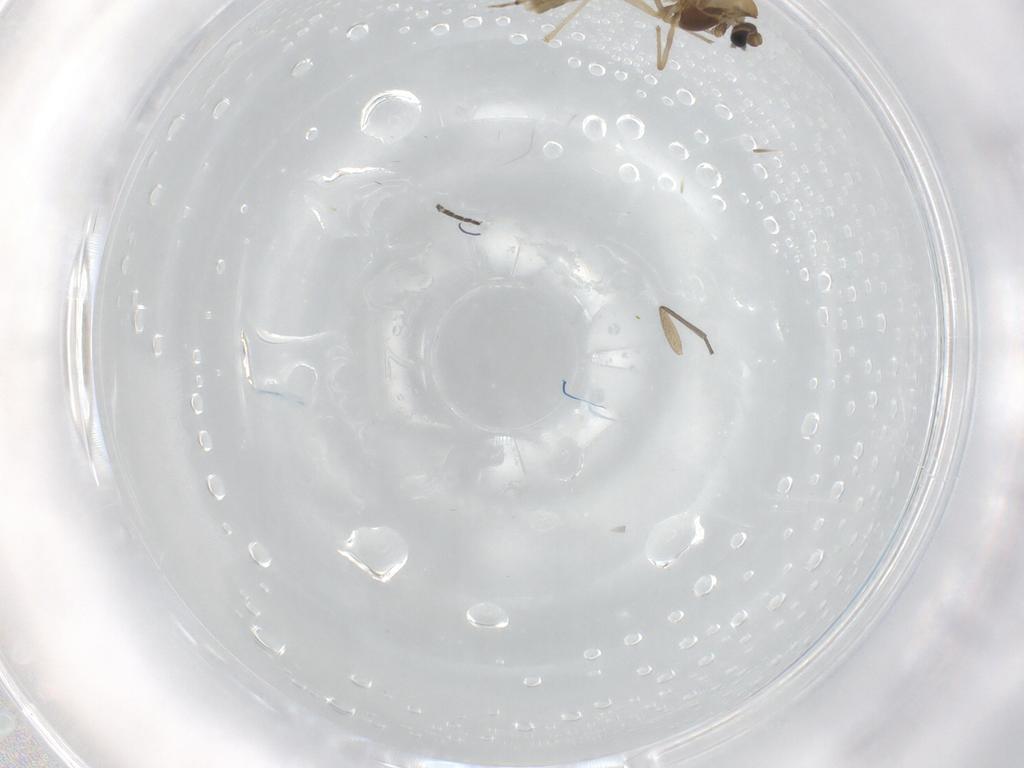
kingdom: Animalia
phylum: Arthropoda
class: Insecta
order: Diptera
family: Chironomidae
